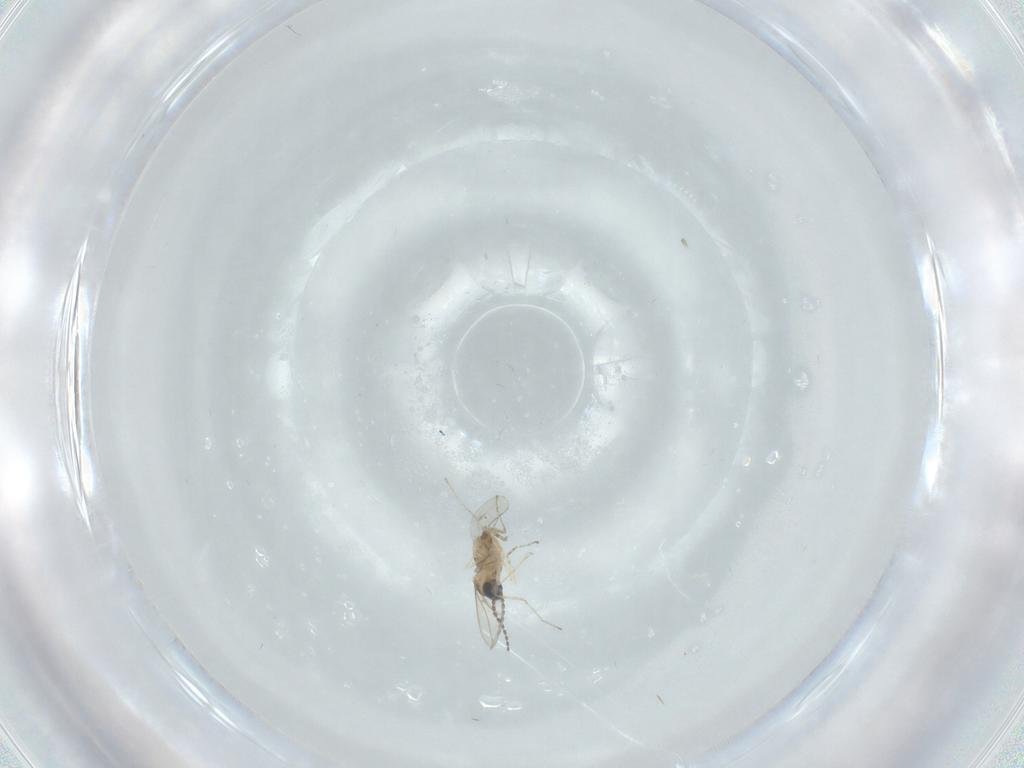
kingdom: Animalia
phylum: Arthropoda
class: Insecta
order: Diptera
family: Cecidomyiidae
